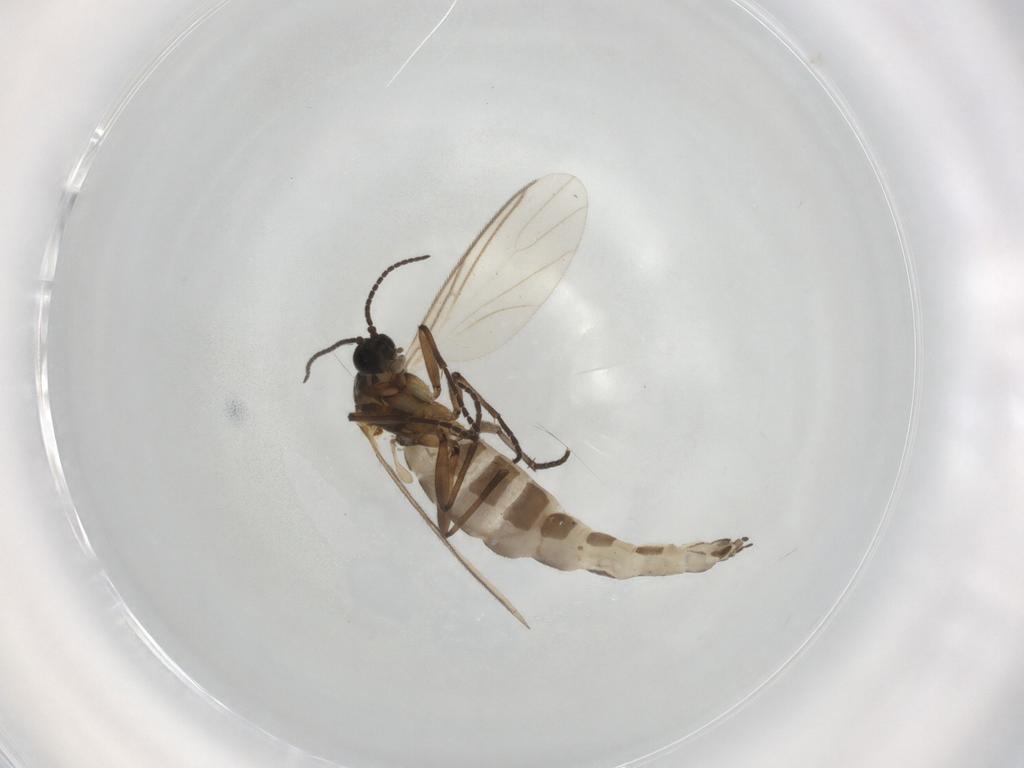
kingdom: Animalia
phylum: Arthropoda
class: Insecta
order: Diptera
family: Sciaridae
